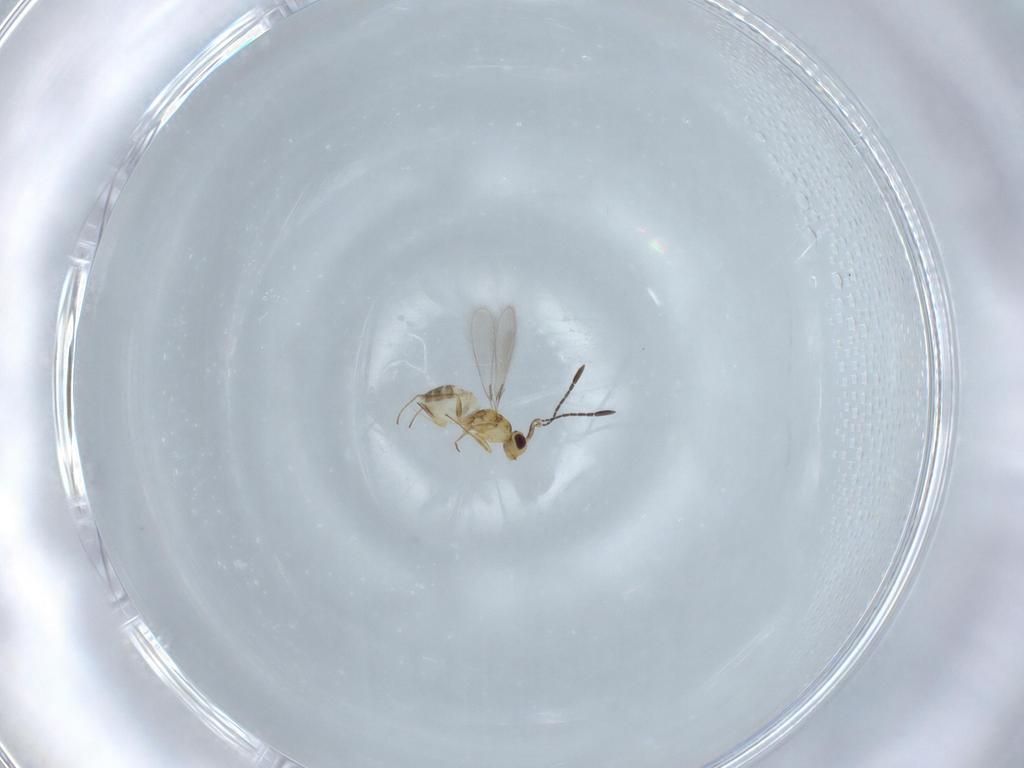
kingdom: Animalia
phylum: Arthropoda
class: Insecta
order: Hymenoptera
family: Mymaridae
